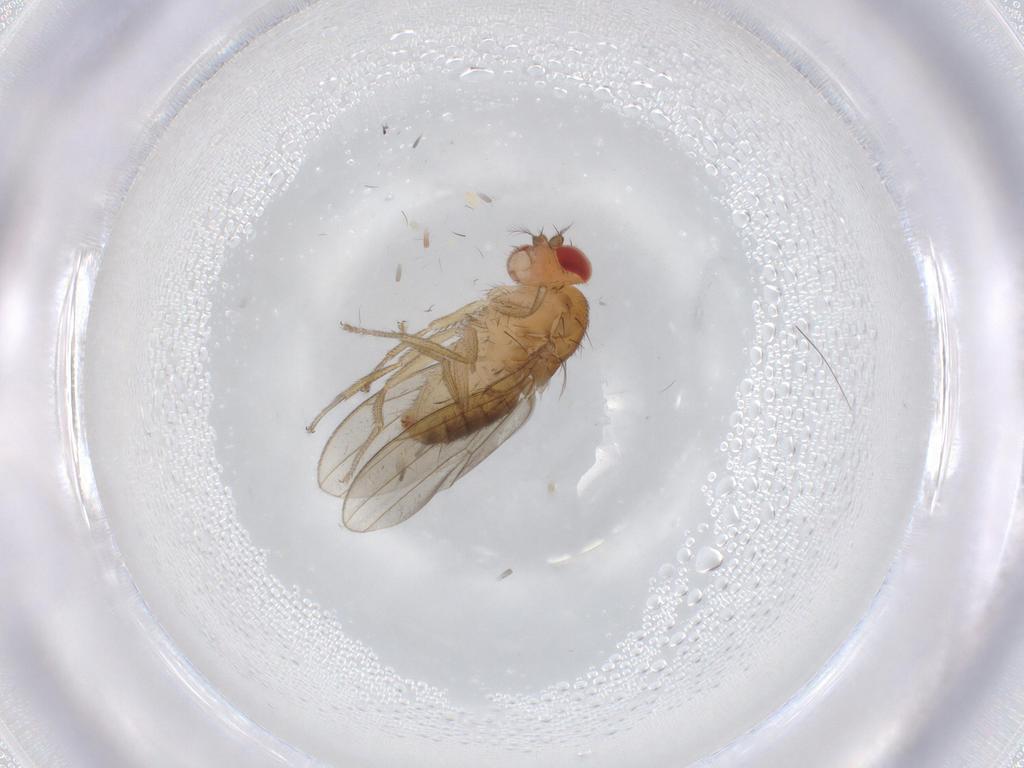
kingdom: Animalia
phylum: Arthropoda
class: Insecta
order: Diptera
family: Drosophilidae
